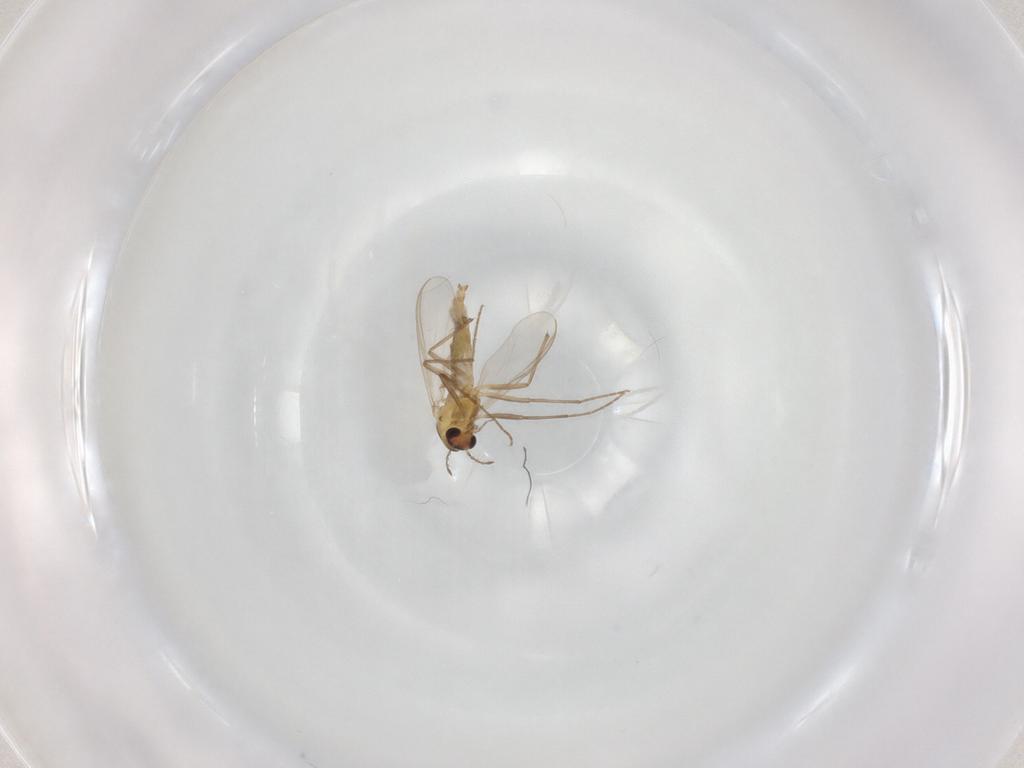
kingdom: Animalia
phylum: Arthropoda
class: Insecta
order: Diptera
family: Chironomidae
